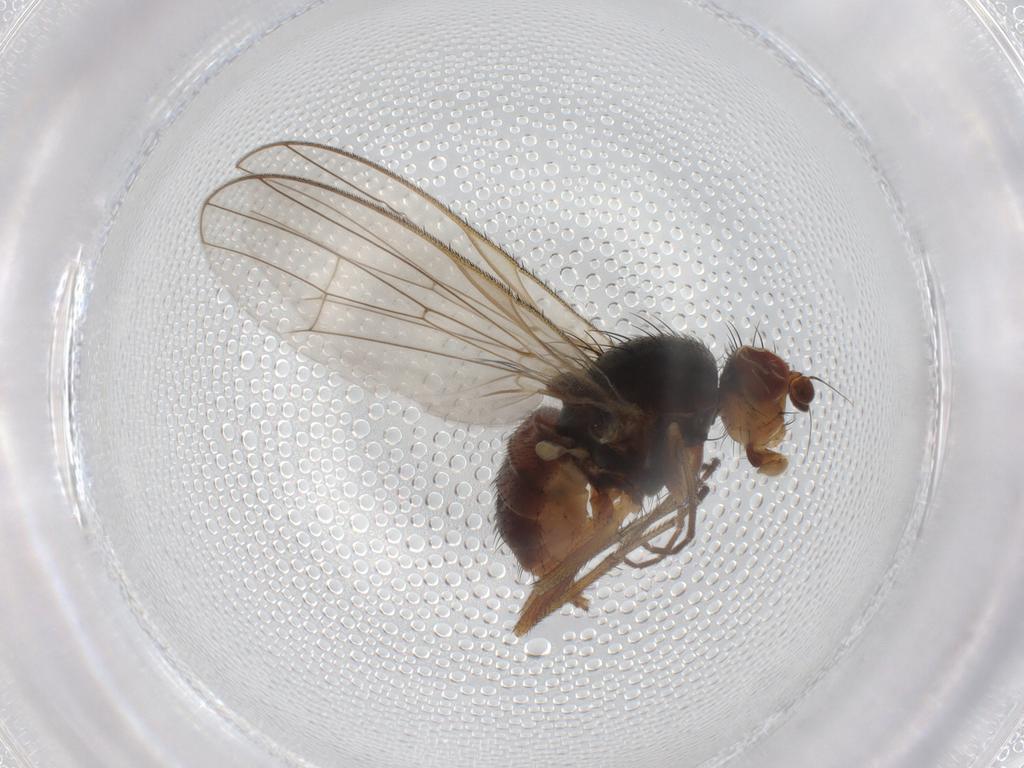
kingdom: Animalia
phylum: Arthropoda
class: Insecta
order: Diptera
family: Heleomyzidae
